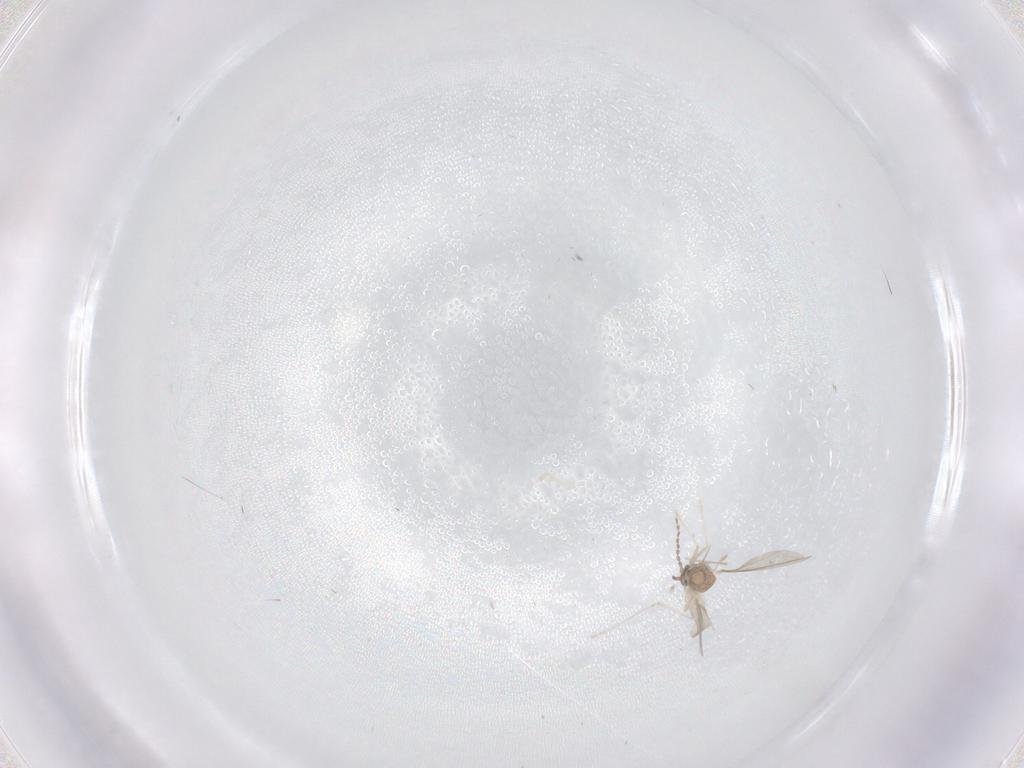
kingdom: Animalia
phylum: Arthropoda
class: Insecta
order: Diptera
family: Cecidomyiidae
